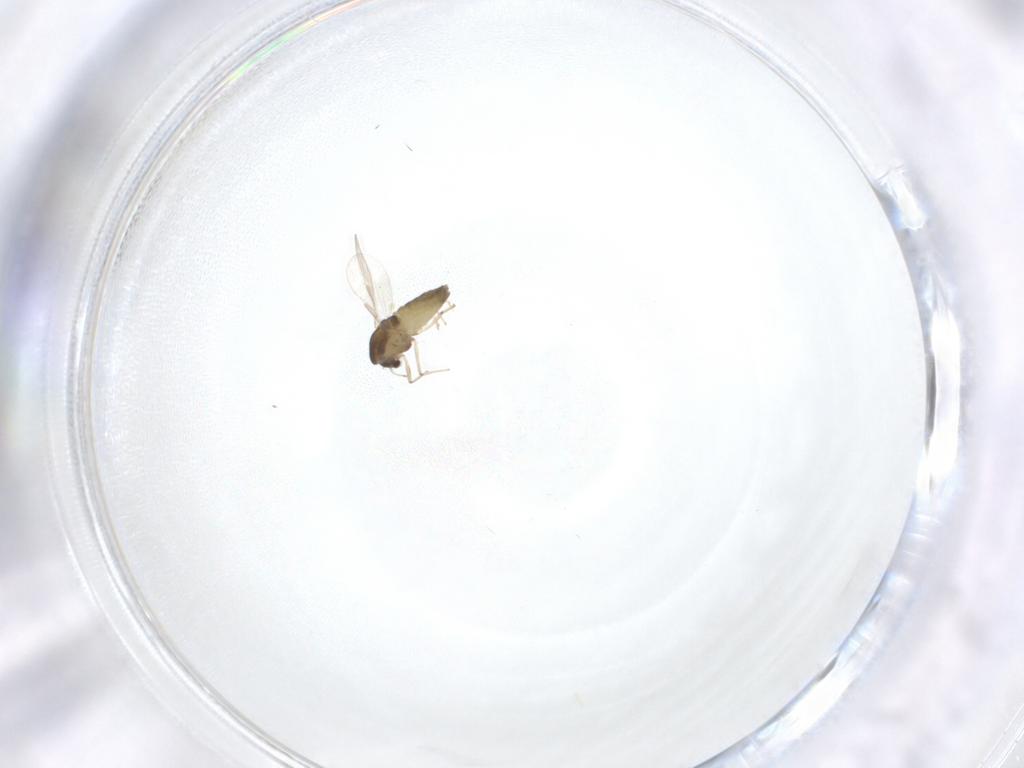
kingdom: Animalia
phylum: Arthropoda
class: Insecta
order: Diptera
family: Chironomidae
